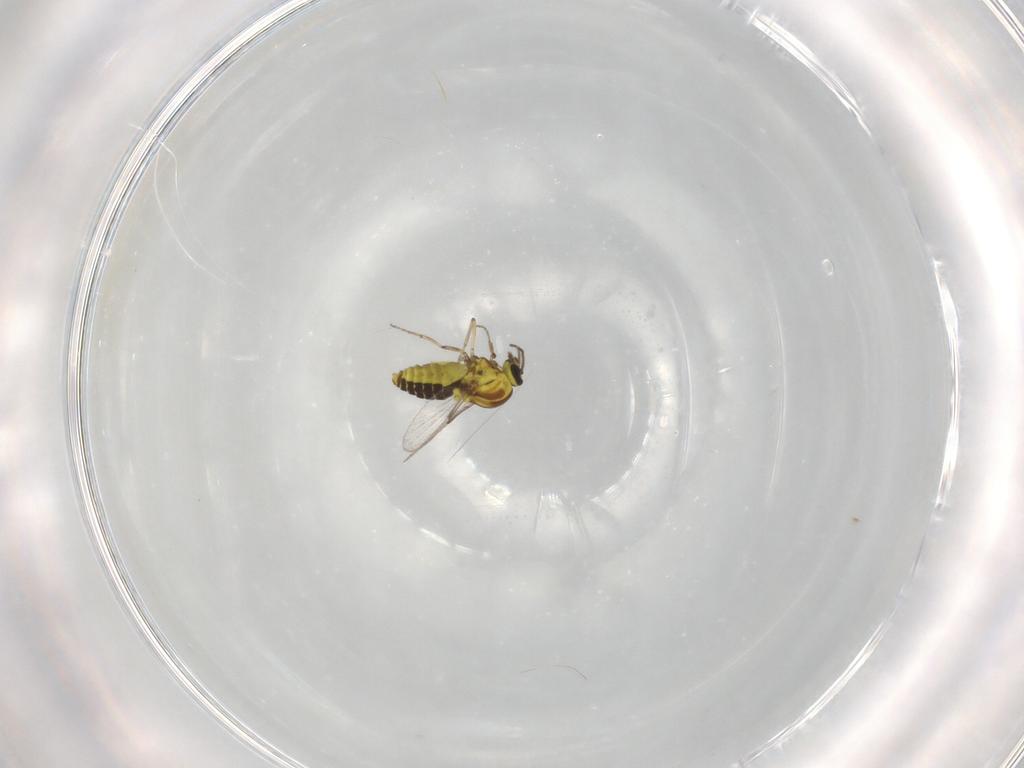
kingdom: Animalia
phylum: Arthropoda
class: Insecta
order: Diptera
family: Ceratopogonidae
